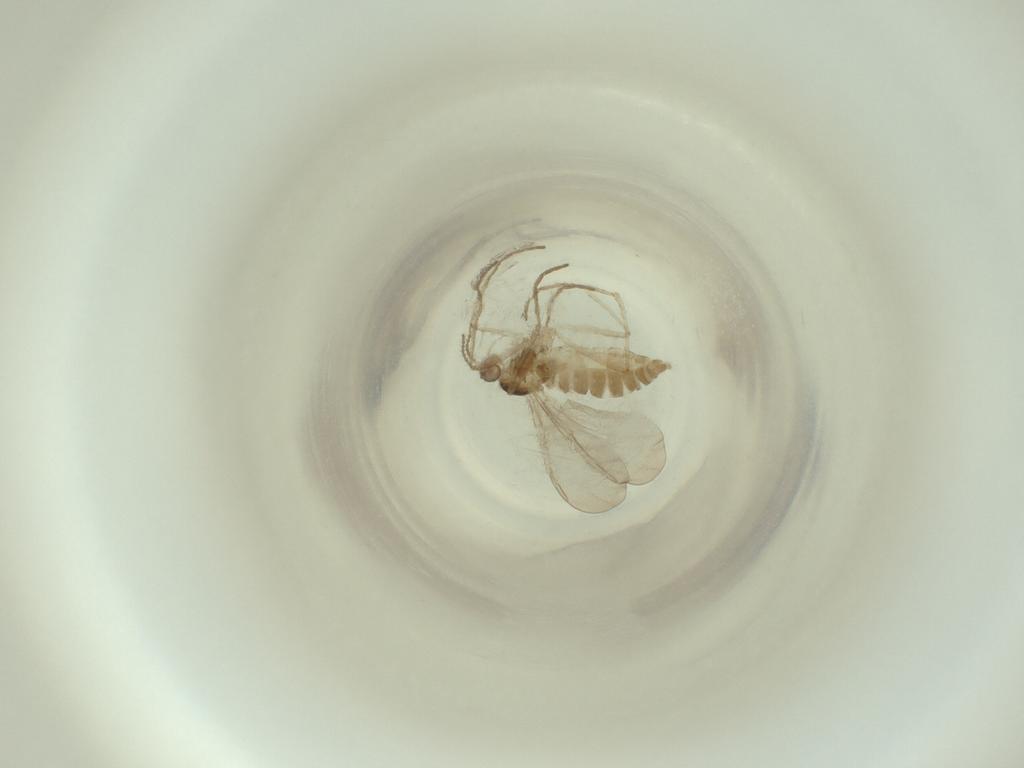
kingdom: Animalia
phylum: Arthropoda
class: Insecta
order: Diptera
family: Cecidomyiidae
